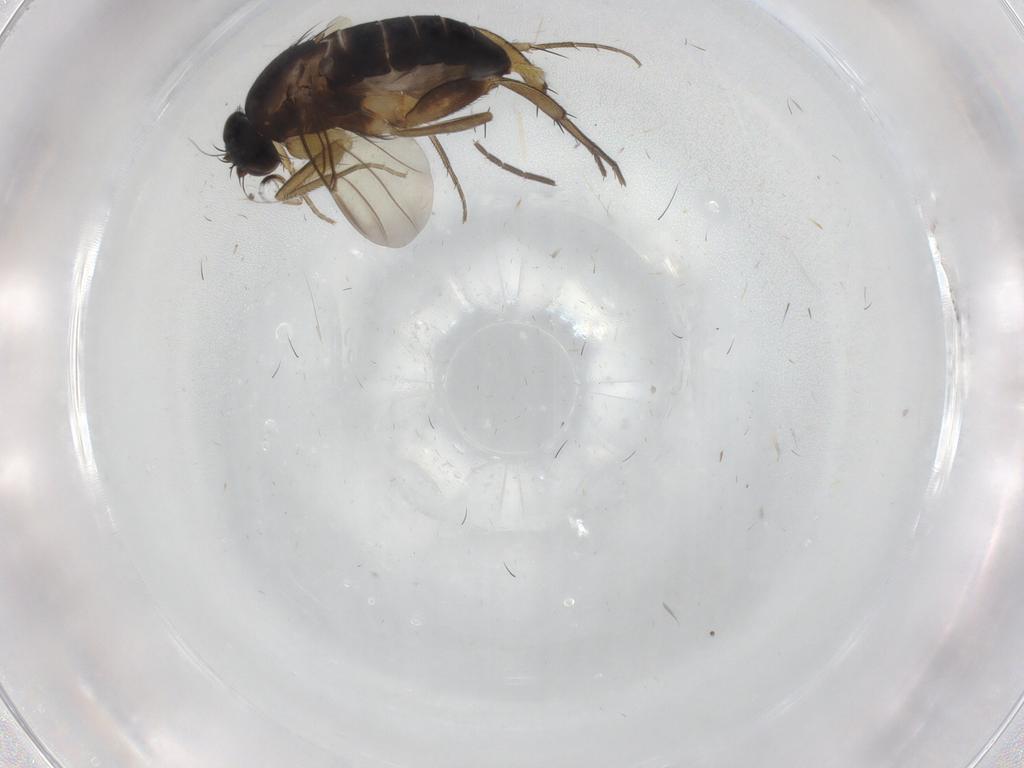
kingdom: Animalia
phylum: Arthropoda
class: Insecta
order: Diptera
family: Phoridae
